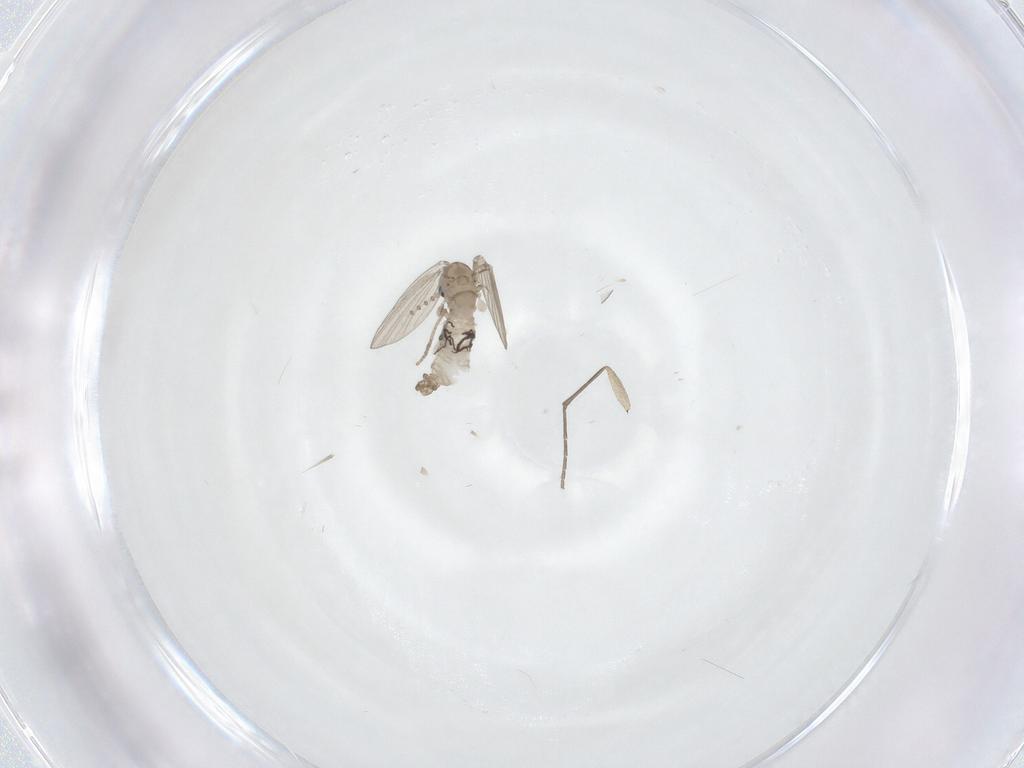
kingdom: Animalia
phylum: Arthropoda
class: Insecta
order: Diptera
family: Psychodidae
